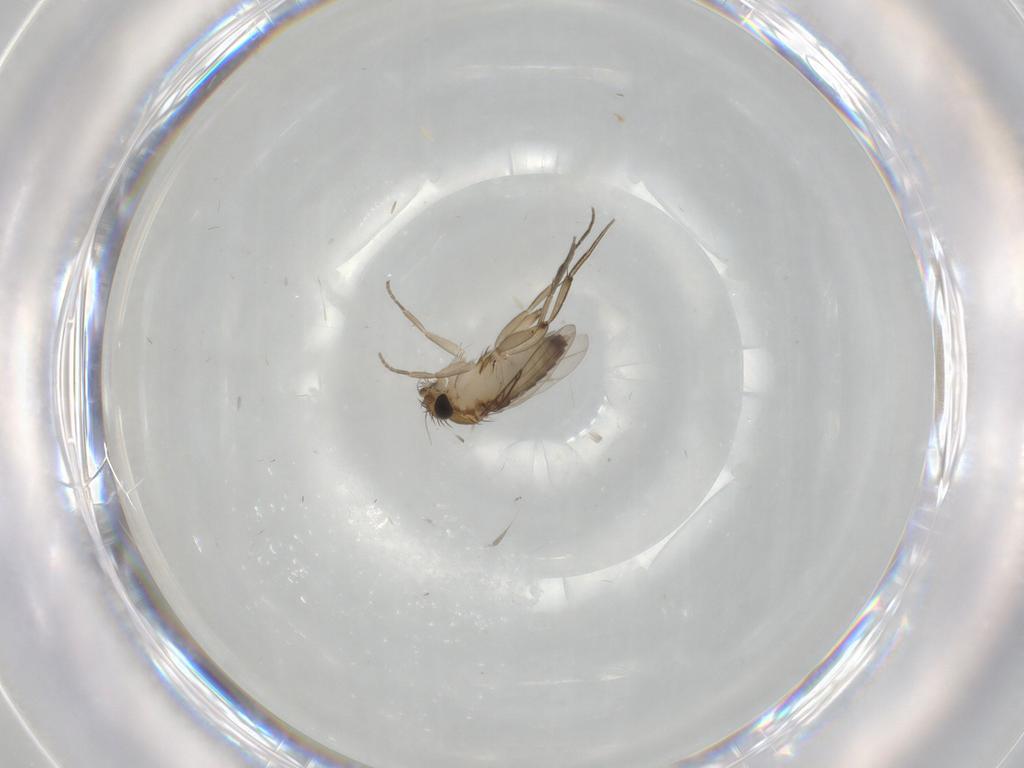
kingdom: Animalia
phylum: Arthropoda
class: Insecta
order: Diptera
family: Phoridae
